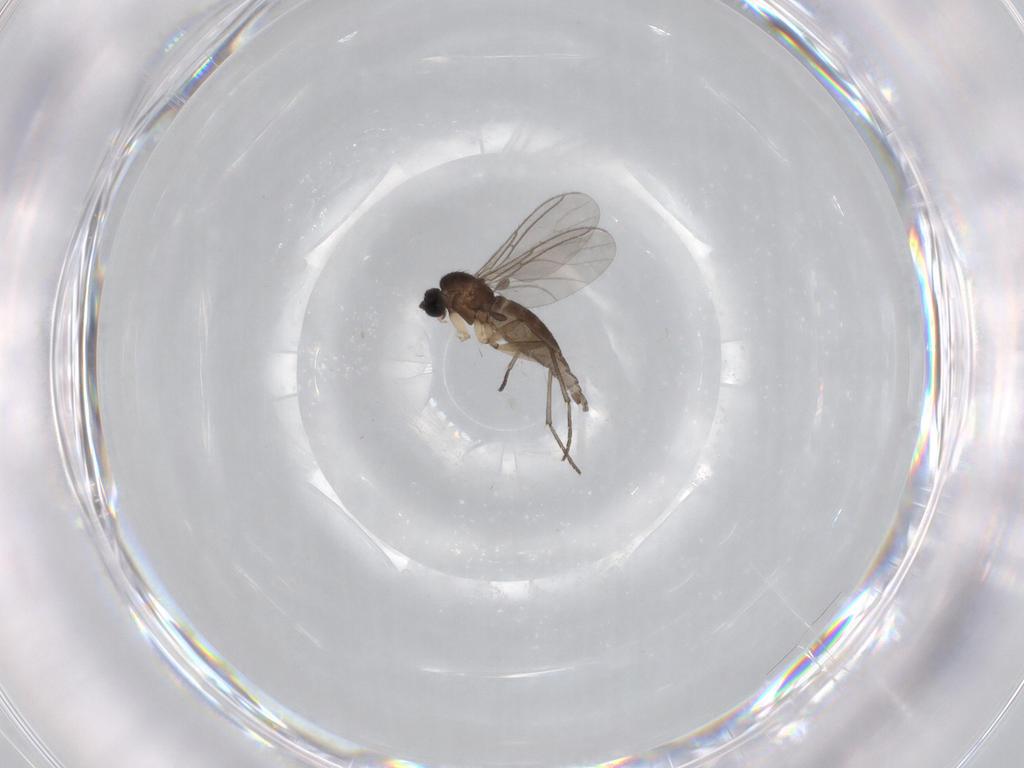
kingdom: Animalia
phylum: Arthropoda
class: Insecta
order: Diptera
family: Sciaridae
